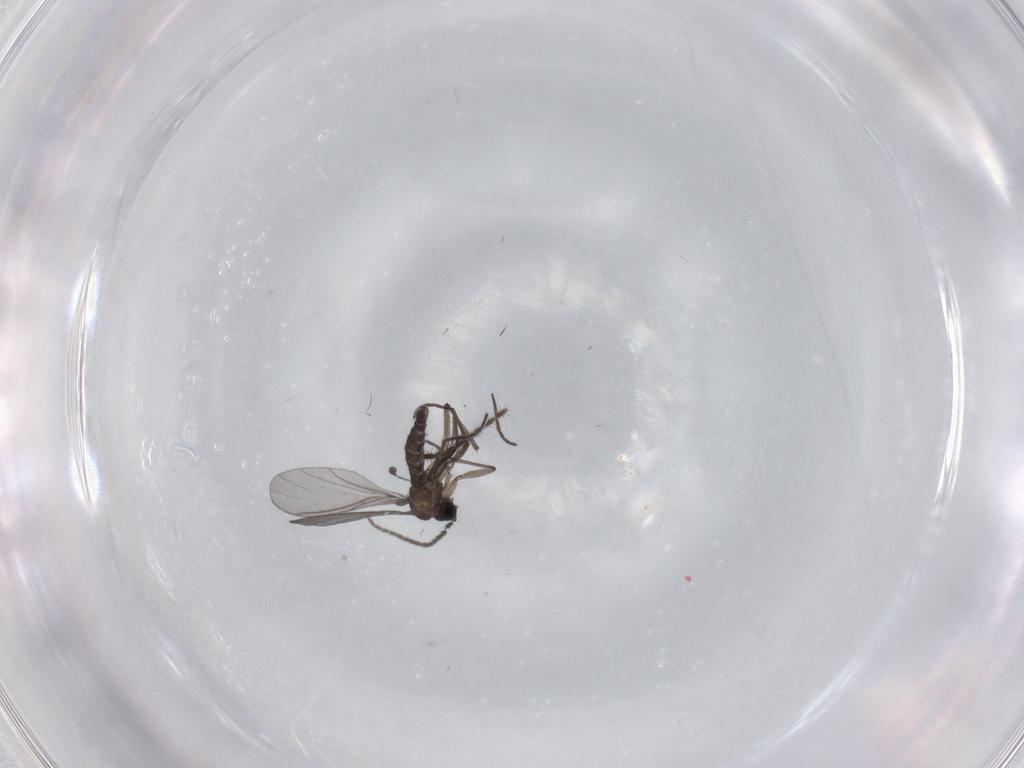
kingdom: Animalia
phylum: Arthropoda
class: Insecta
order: Diptera
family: Sciaridae
